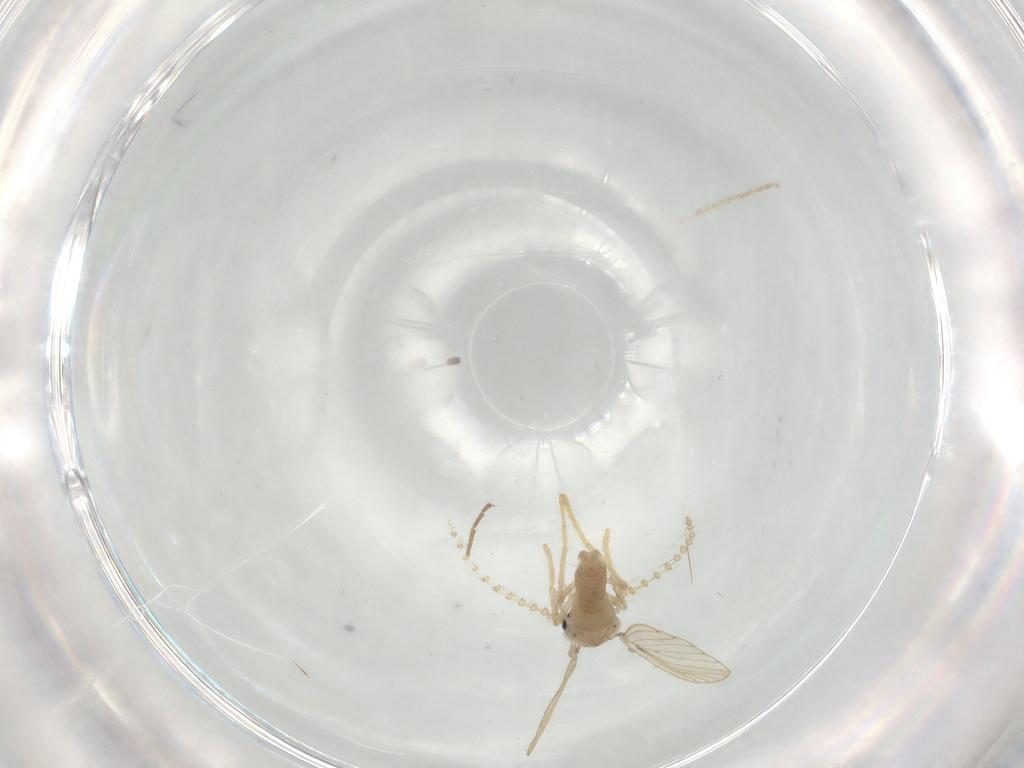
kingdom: Animalia
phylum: Arthropoda
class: Insecta
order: Diptera
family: Psychodidae
